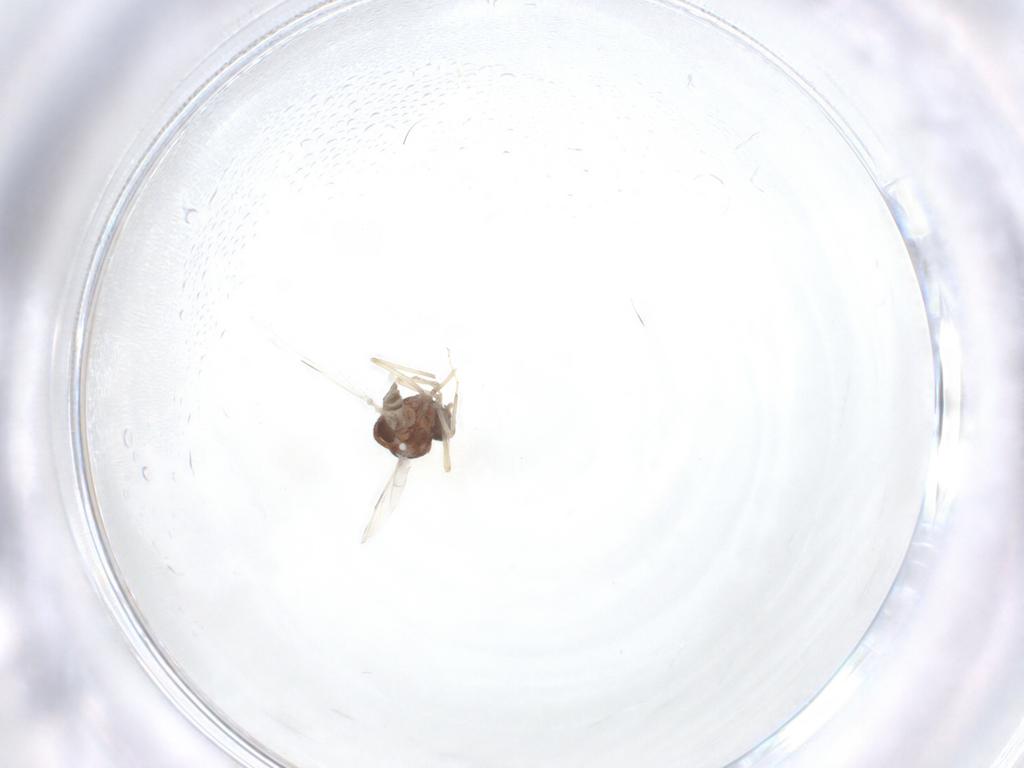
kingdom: Animalia
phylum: Arthropoda
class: Insecta
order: Diptera
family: Ceratopogonidae
